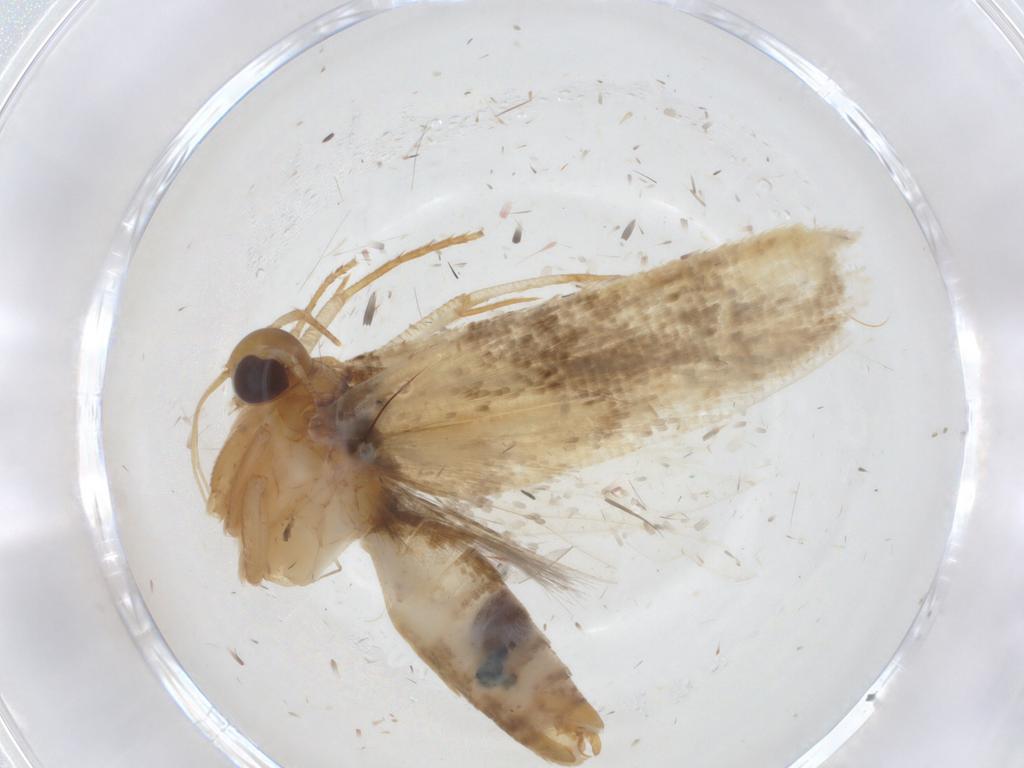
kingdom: Animalia
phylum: Arthropoda
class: Insecta
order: Lepidoptera
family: Gelechiidae
